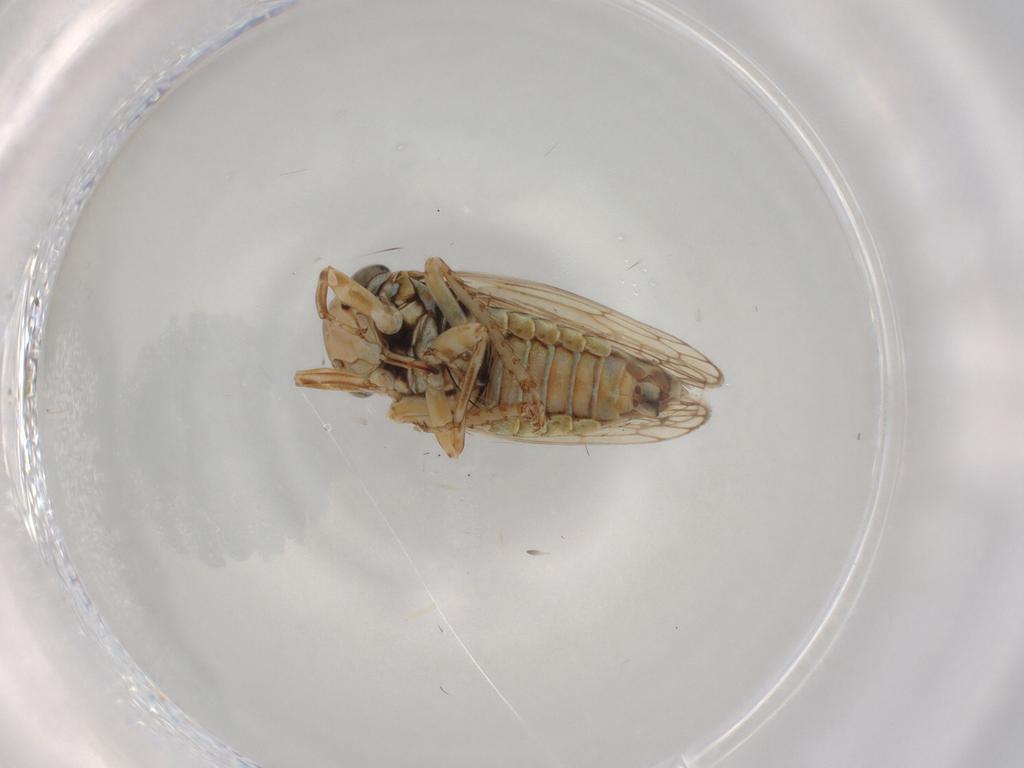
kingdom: Animalia
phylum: Arthropoda
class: Insecta
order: Hemiptera
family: Cicadellidae
